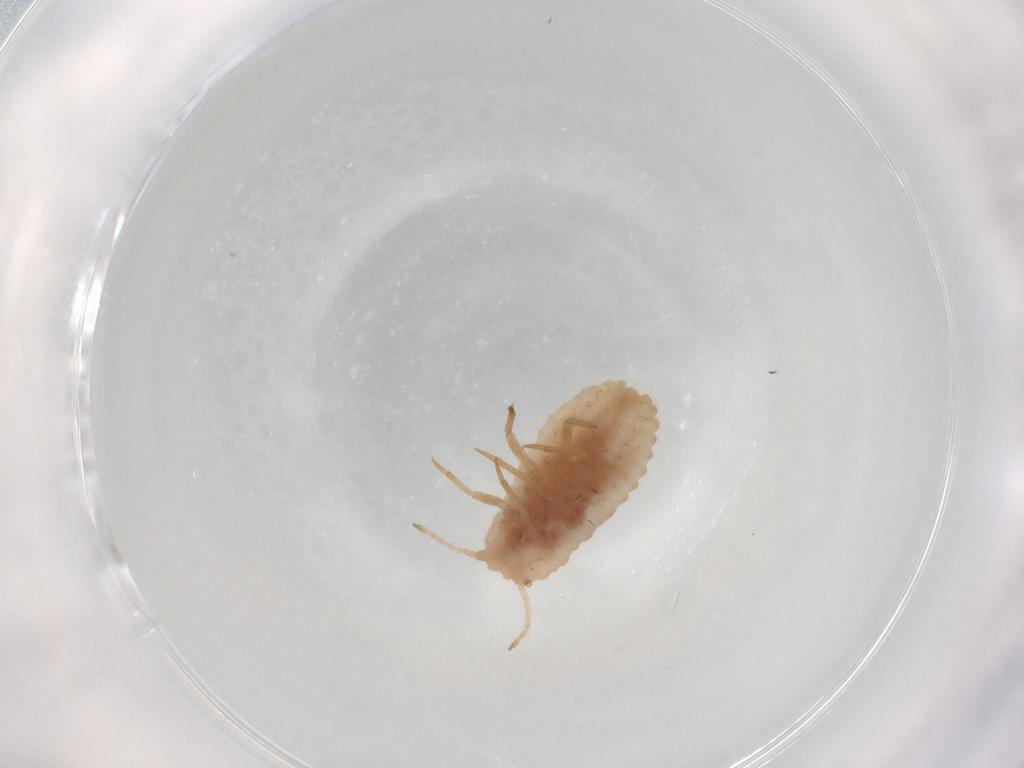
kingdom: Animalia
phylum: Arthropoda
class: Insecta
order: Hemiptera
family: Coccoidea_incertae_sedis
